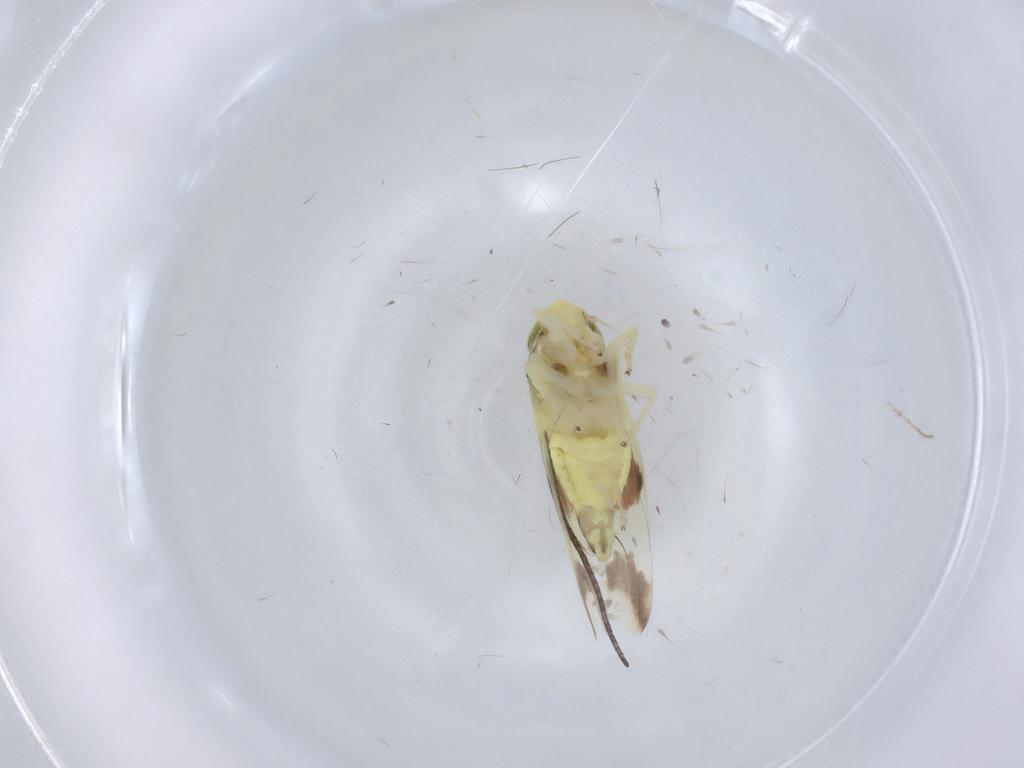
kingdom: Animalia
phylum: Arthropoda
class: Insecta
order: Hemiptera
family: Cicadellidae
